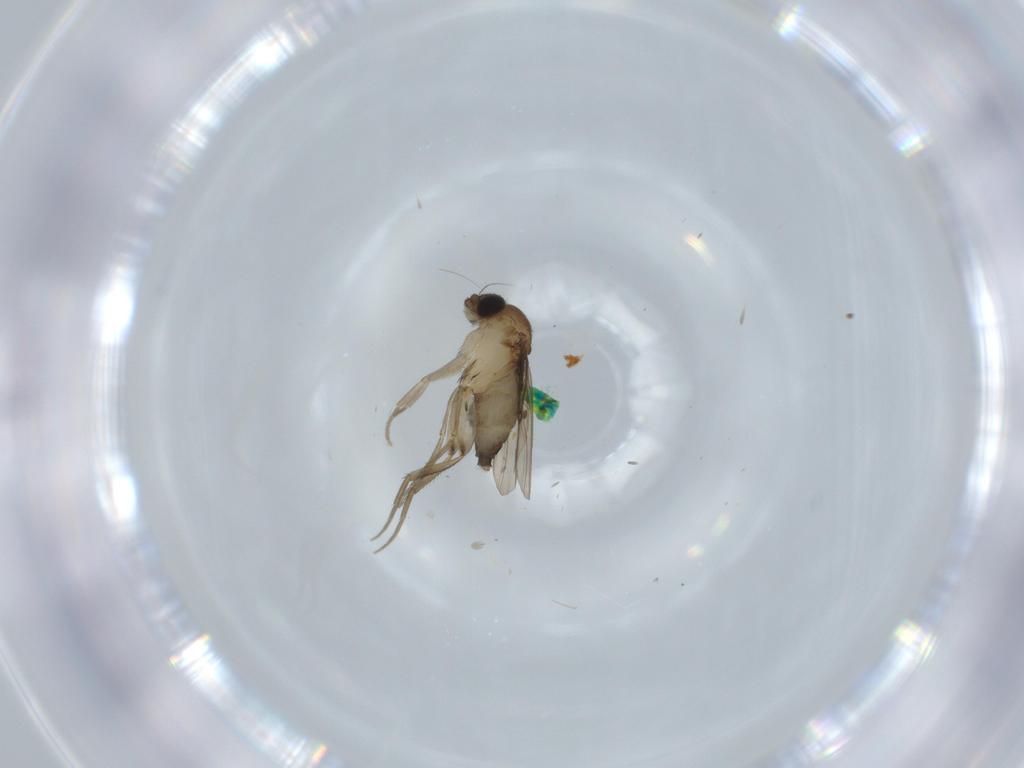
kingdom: Animalia
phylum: Arthropoda
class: Insecta
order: Diptera
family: Phoridae
